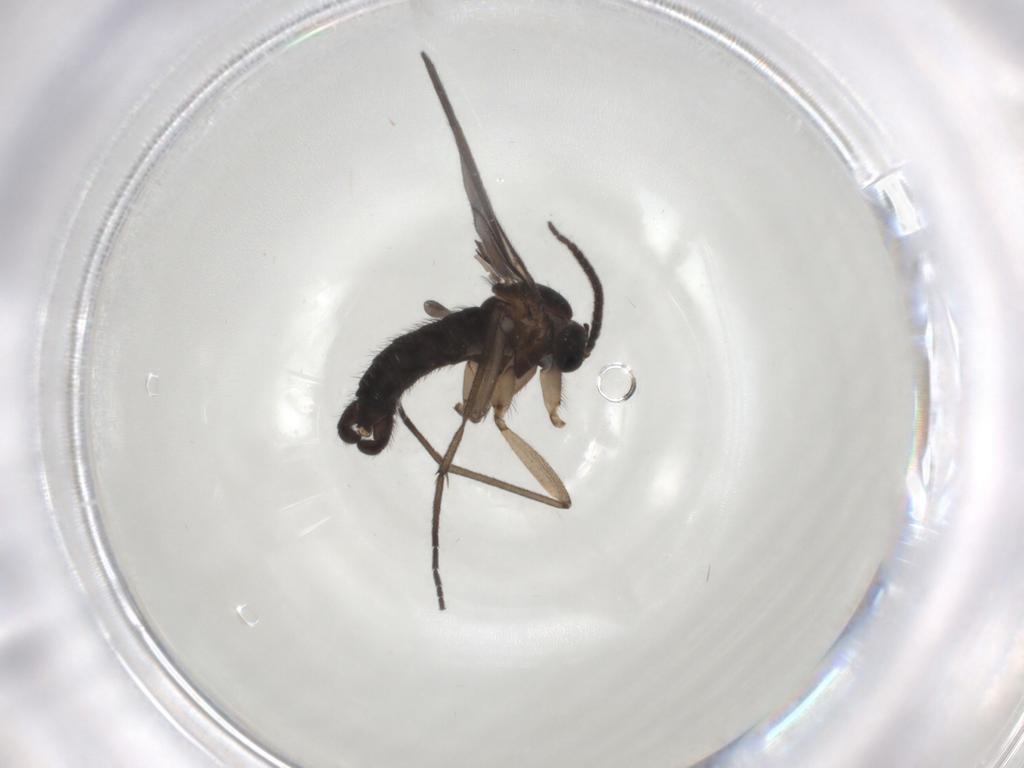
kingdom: Animalia
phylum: Arthropoda
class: Insecta
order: Diptera
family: Sciaridae
